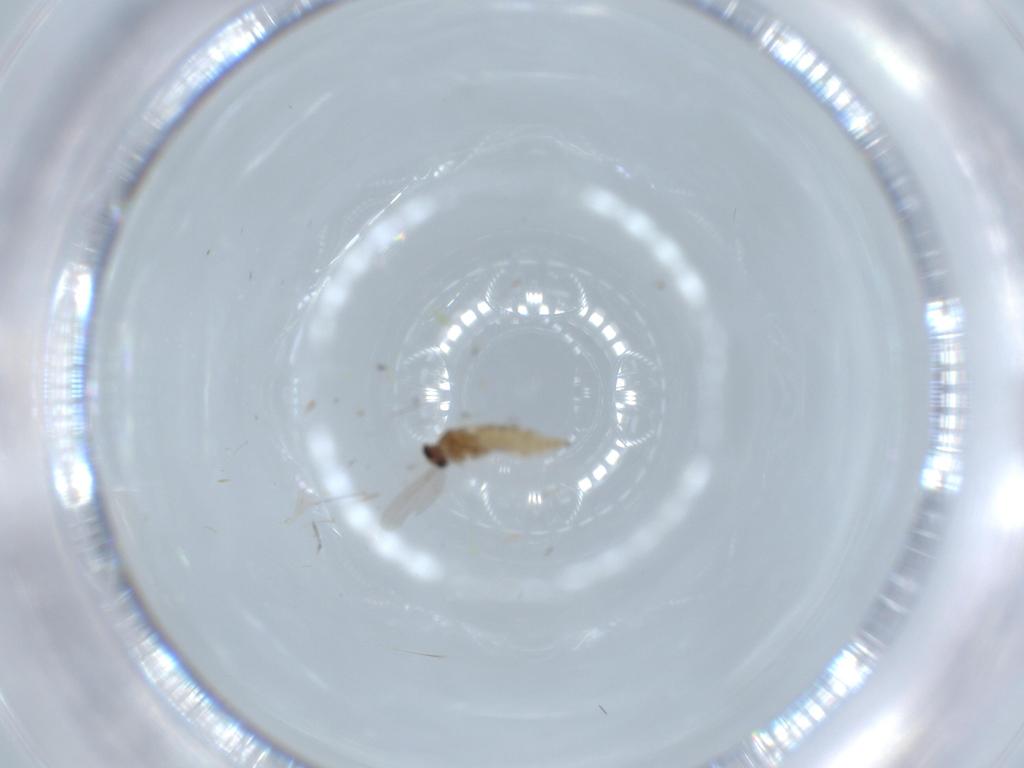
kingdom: Animalia
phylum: Arthropoda
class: Insecta
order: Diptera
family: Cecidomyiidae
